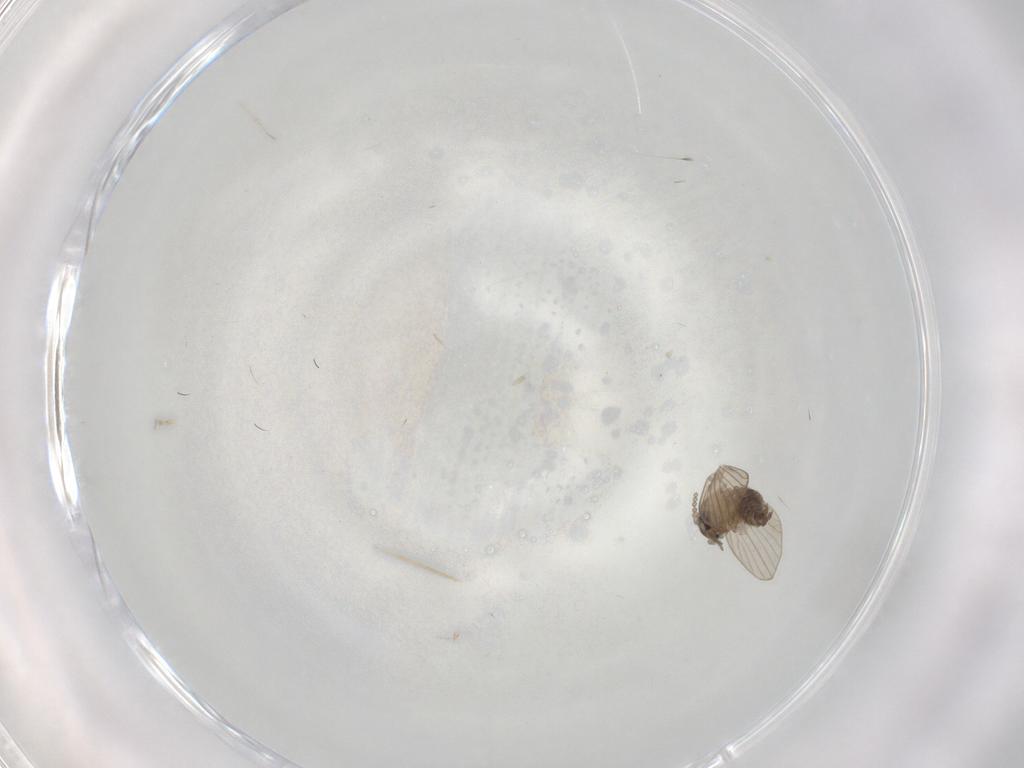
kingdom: Animalia
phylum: Arthropoda
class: Insecta
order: Diptera
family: Psychodidae
